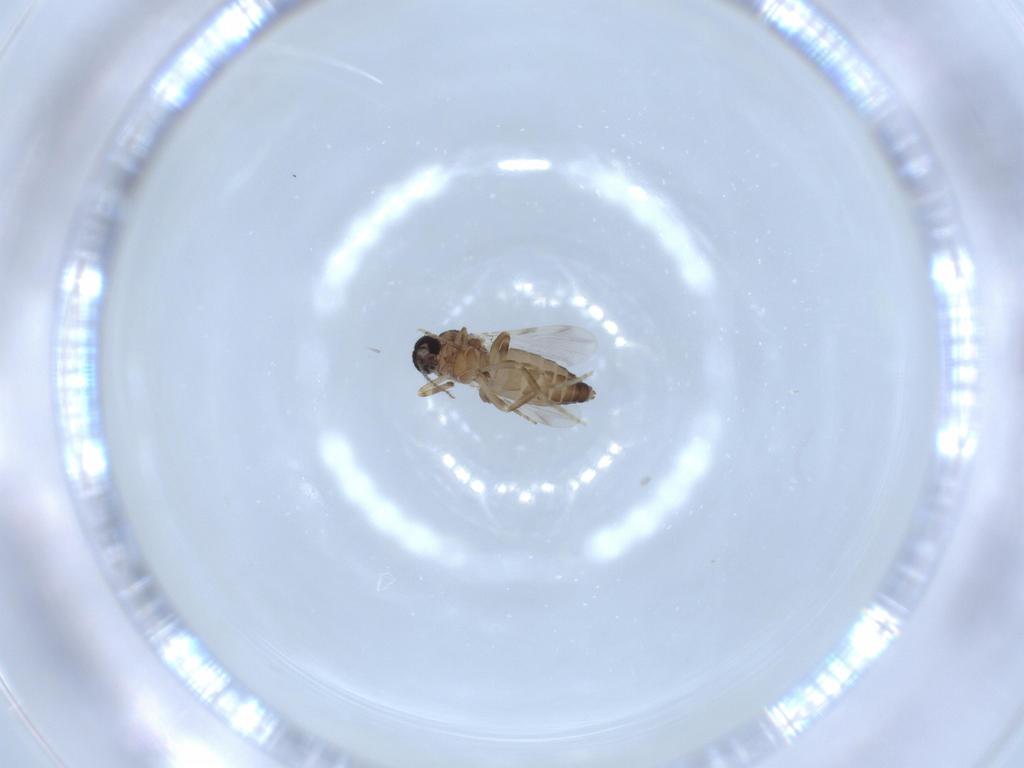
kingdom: Animalia
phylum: Arthropoda
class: Insecta
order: Diptera
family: Ceratopogonidae
